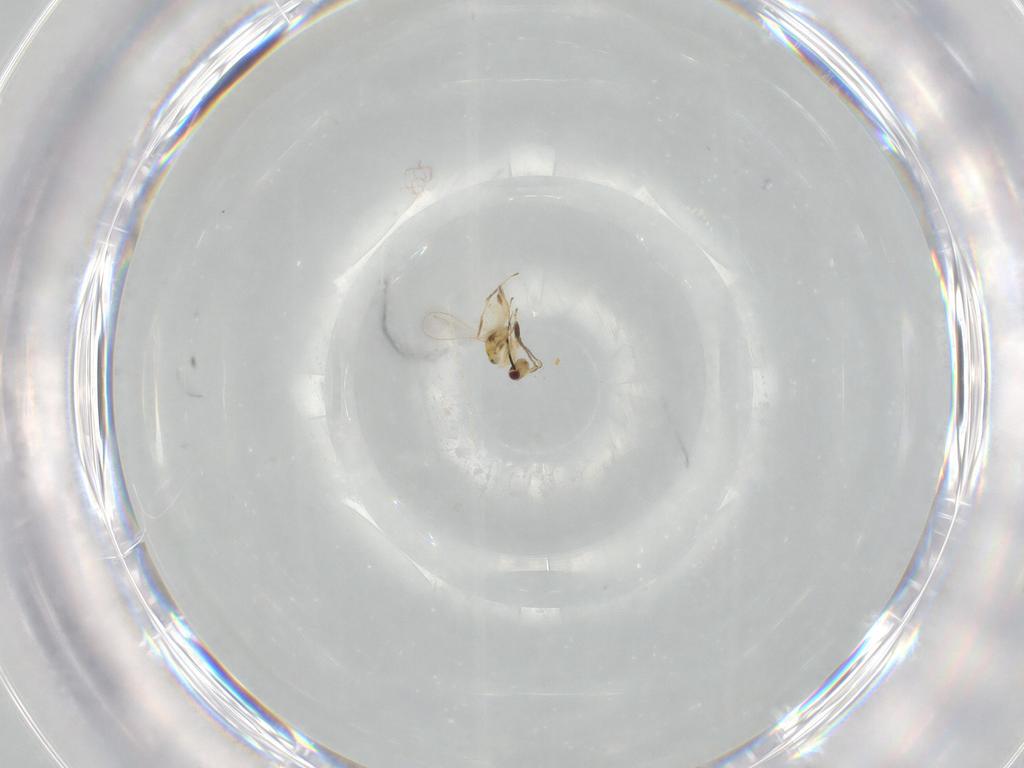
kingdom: Animalia
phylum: Arthropoda
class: Insecta
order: Hymenoptera
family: Mymaridae
